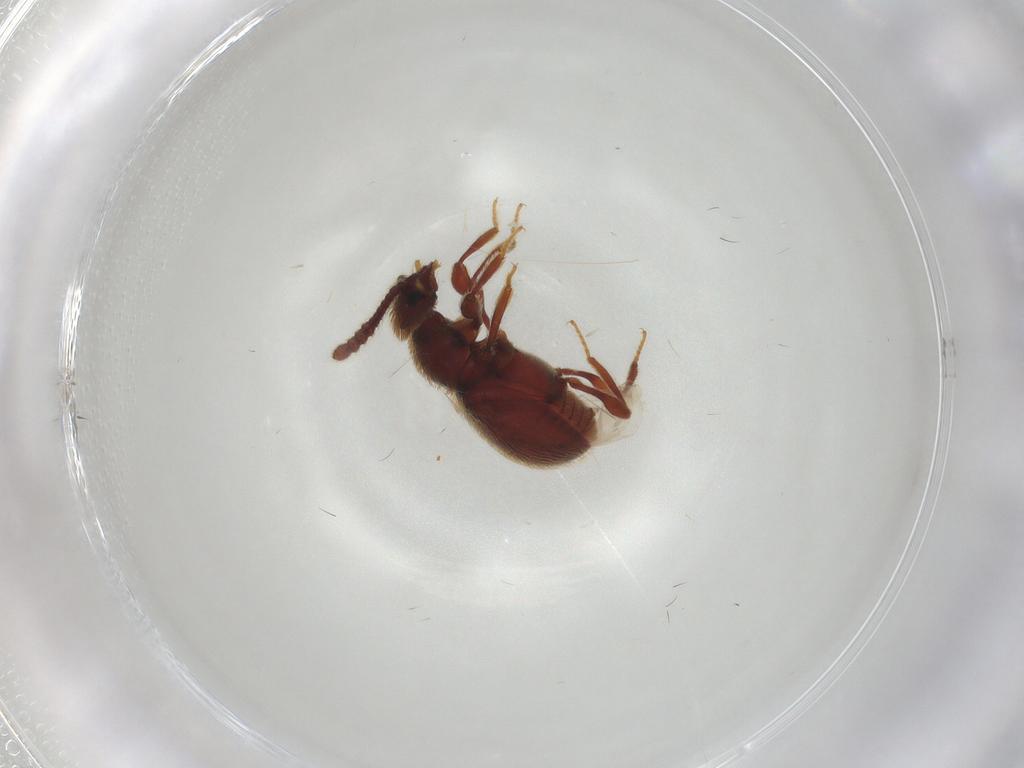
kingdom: Animalia
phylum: Arthropoda
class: Insecta
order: Coleoptera
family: Staphylinidae
